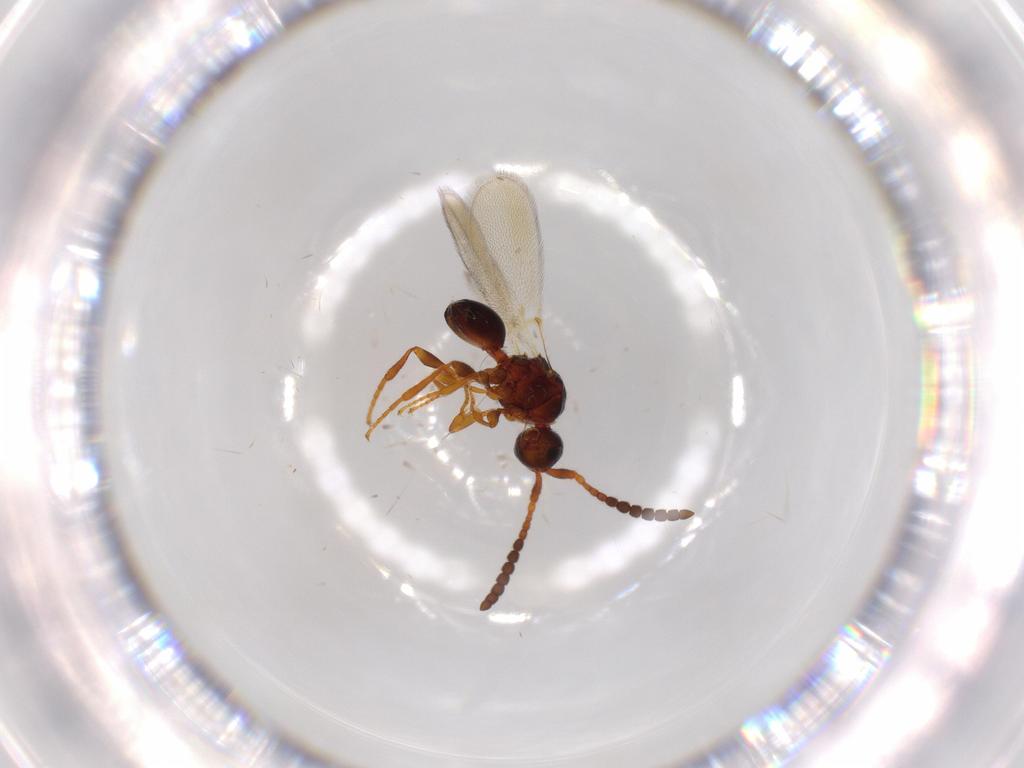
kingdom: Animalia
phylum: Arthropoda
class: Insecta
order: Hymenoptera
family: Diapriidae
